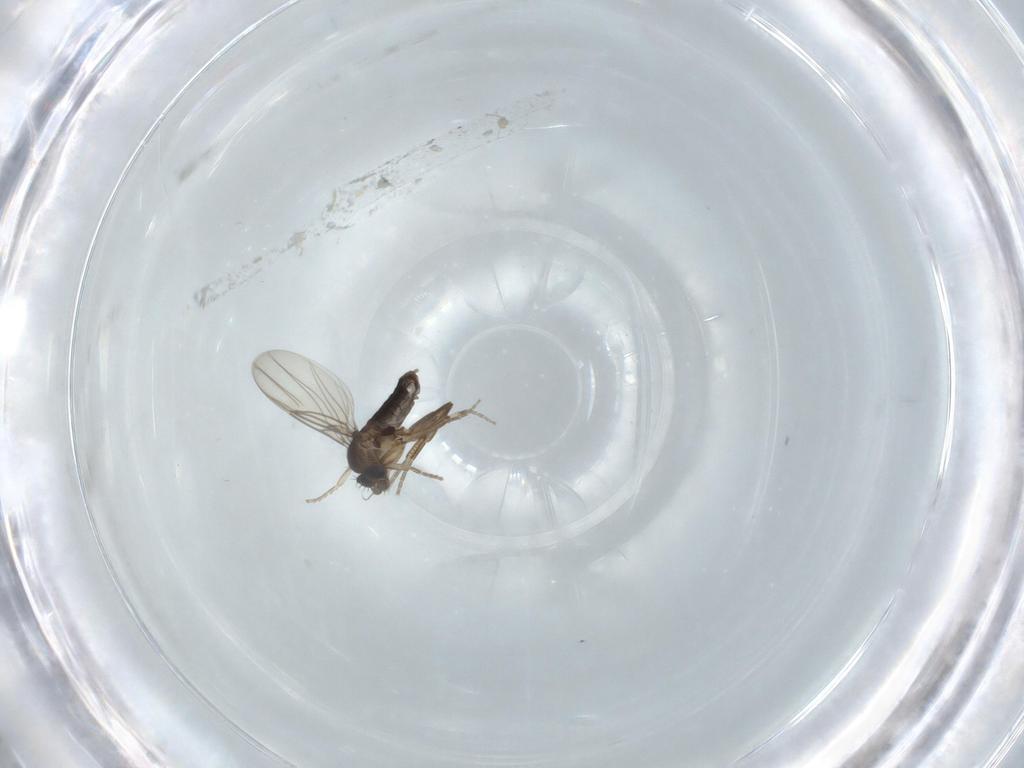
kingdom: Animalia
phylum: Arthropoda
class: Insecta
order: Diptera
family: Phoridae
